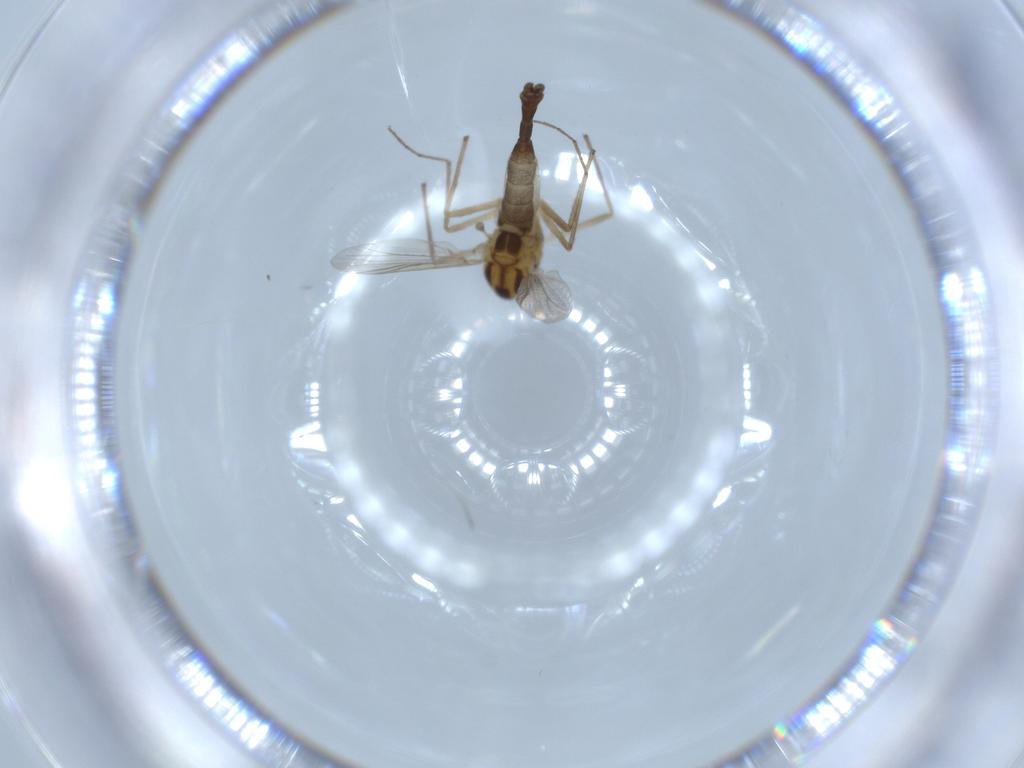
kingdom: Animalia
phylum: Arthropoda
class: Insecta
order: Diptera
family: Chironomidae
